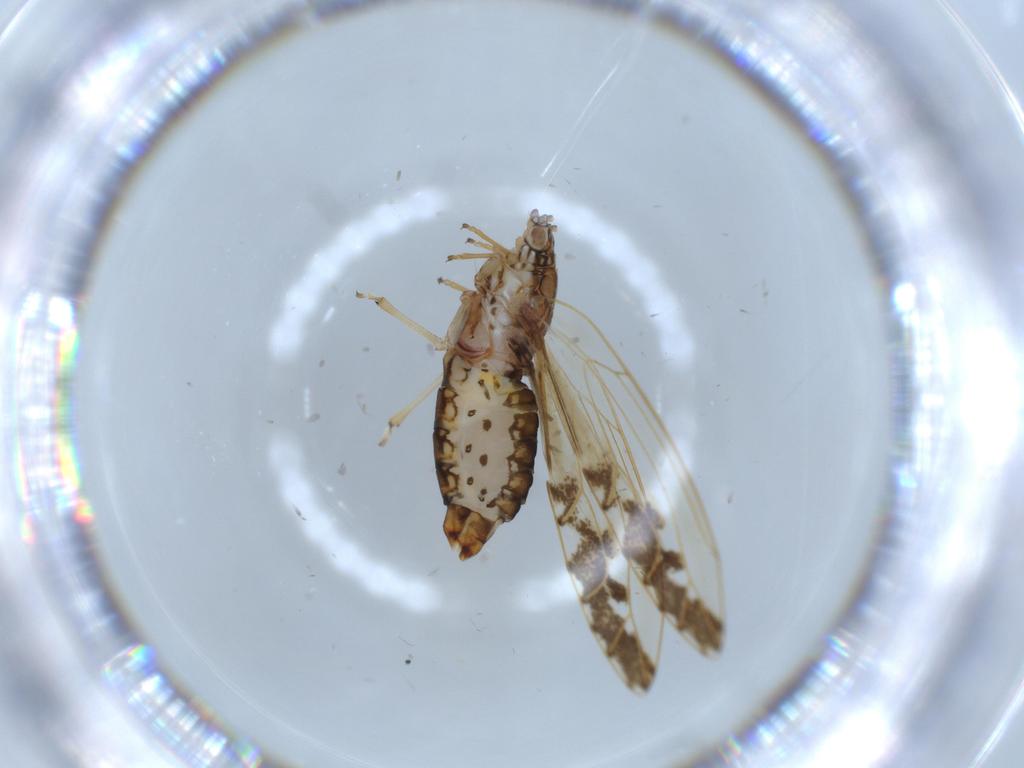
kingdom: Animalia
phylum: Arthropoda
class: Insecta
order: Hemiptera
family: Triozidae
